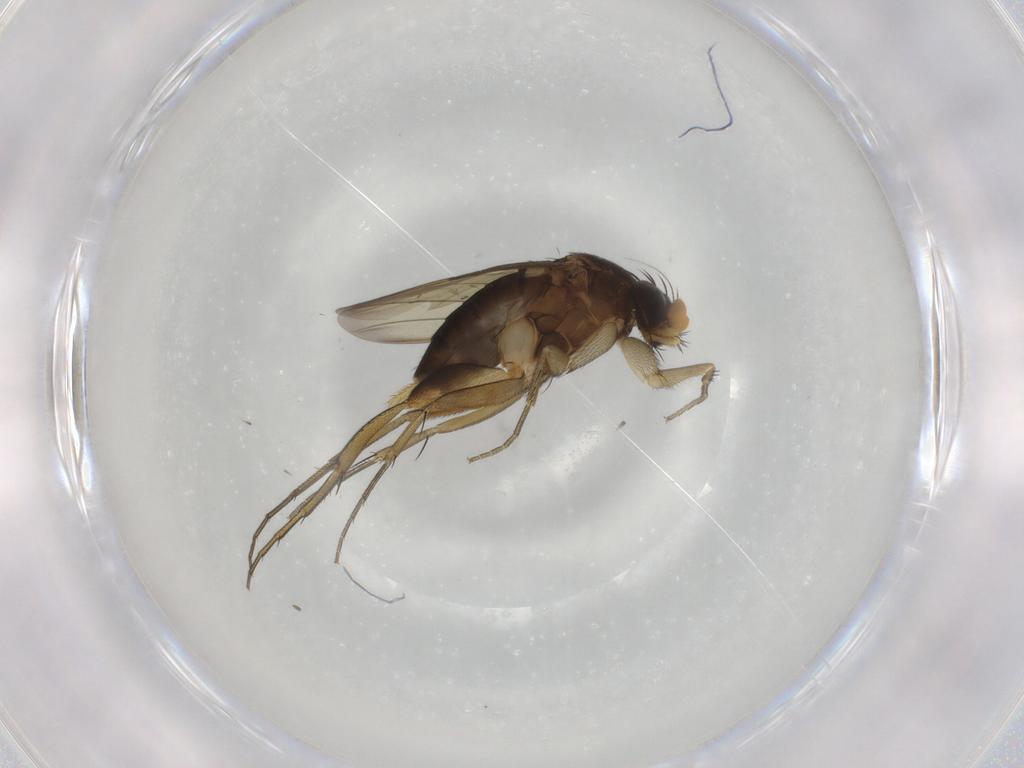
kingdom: Animalia
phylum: Arthropoda
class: Insecta
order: Diptera
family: Phoridae
